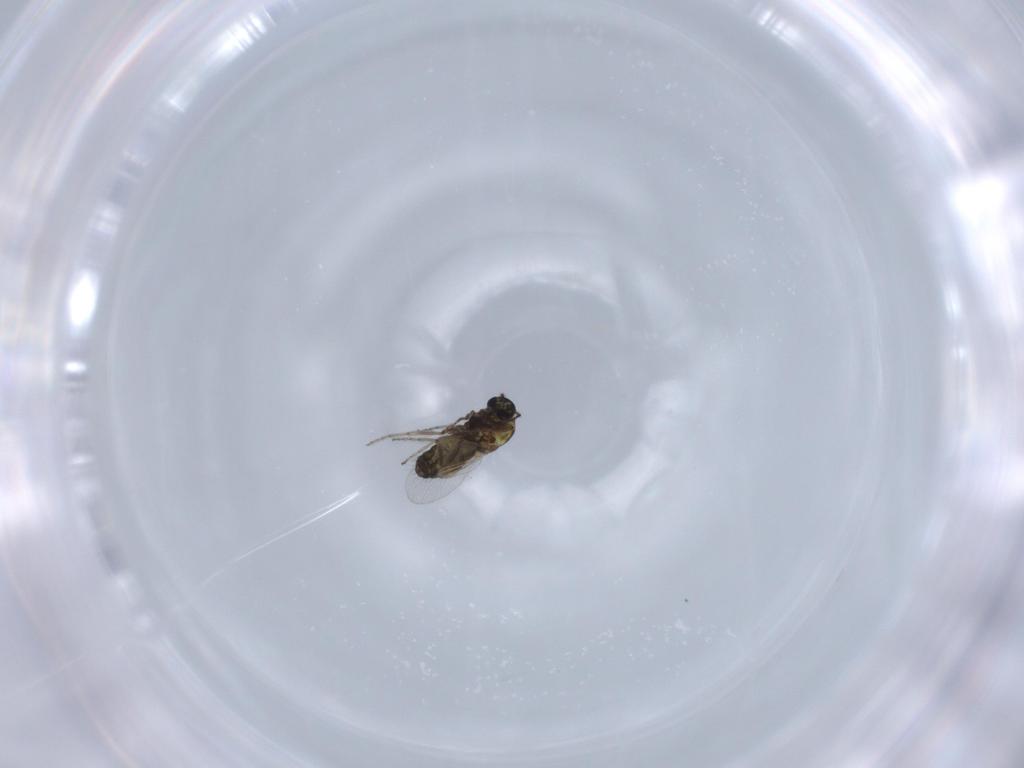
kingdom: Animalia
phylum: Arthropoda
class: Insecta
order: Diptera
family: Ceratopogonidae
